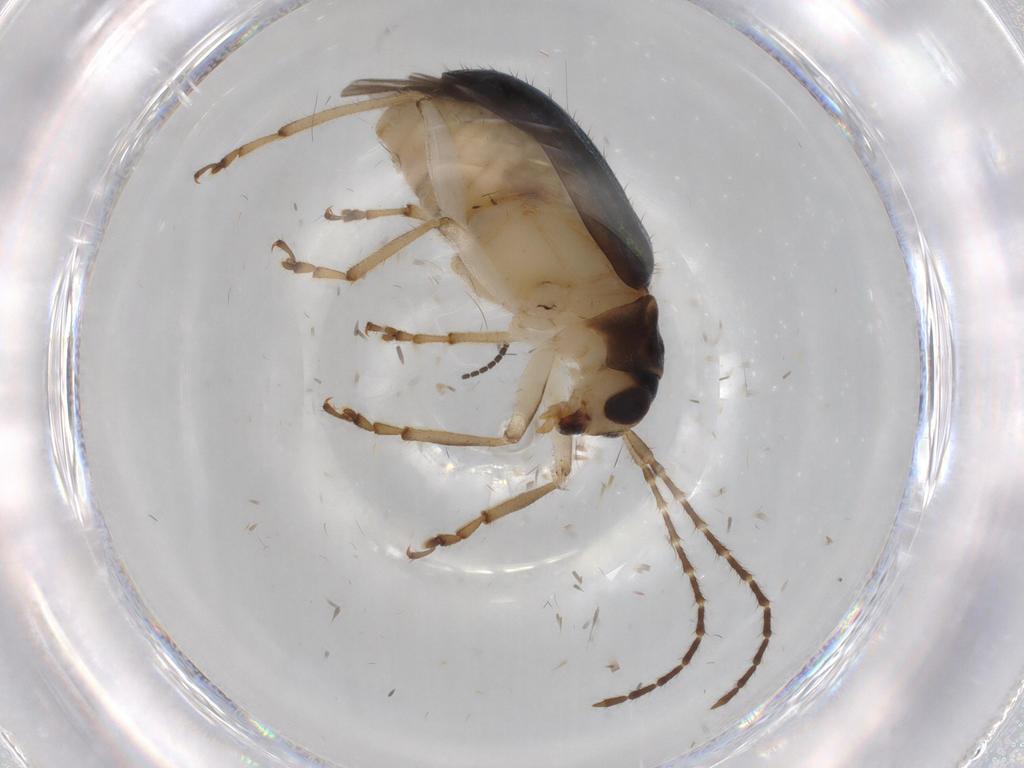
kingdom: Animalia
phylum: Arthropoda
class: Insecta
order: Coleoptera
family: Chrysomelidae
